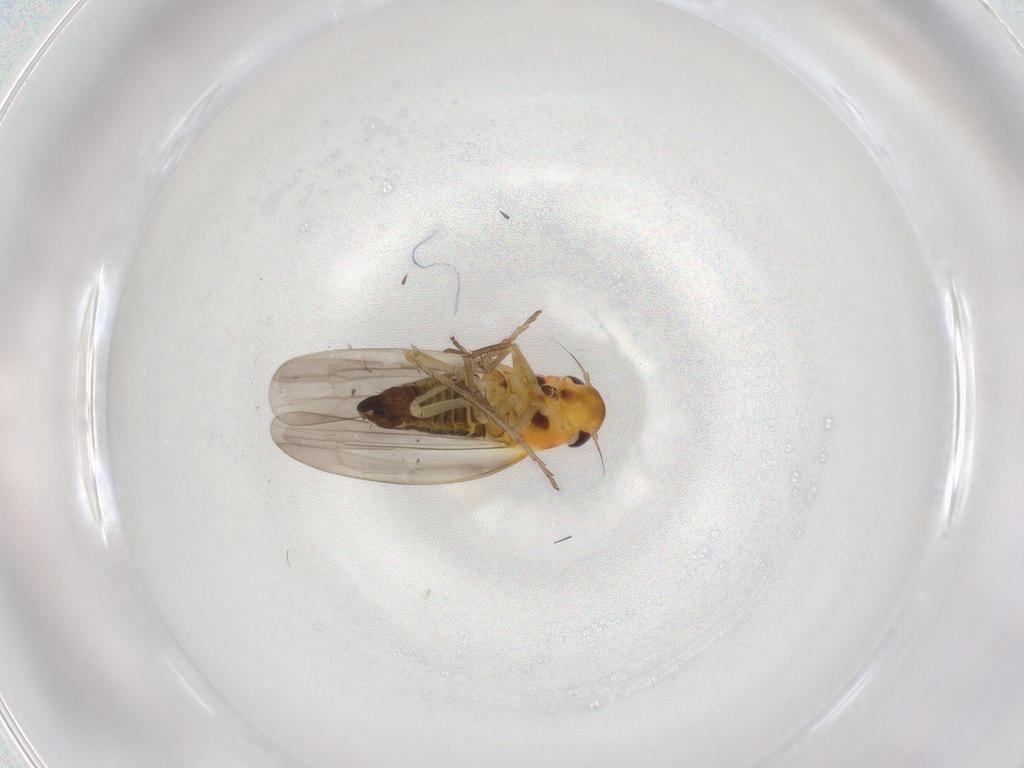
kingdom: Animalia
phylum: Arthropoda
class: Insecta
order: Hemiptera
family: Cicadellidae
